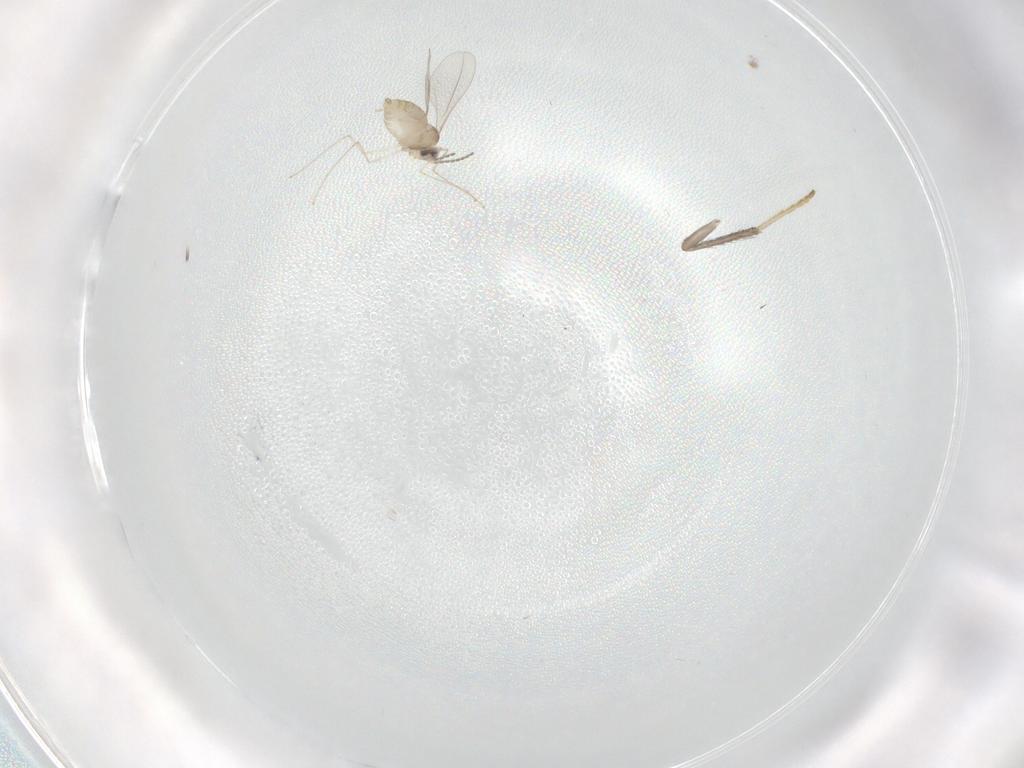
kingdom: Animalia
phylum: Arthropoda
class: Insecta
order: Diptera
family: Psychodidae
